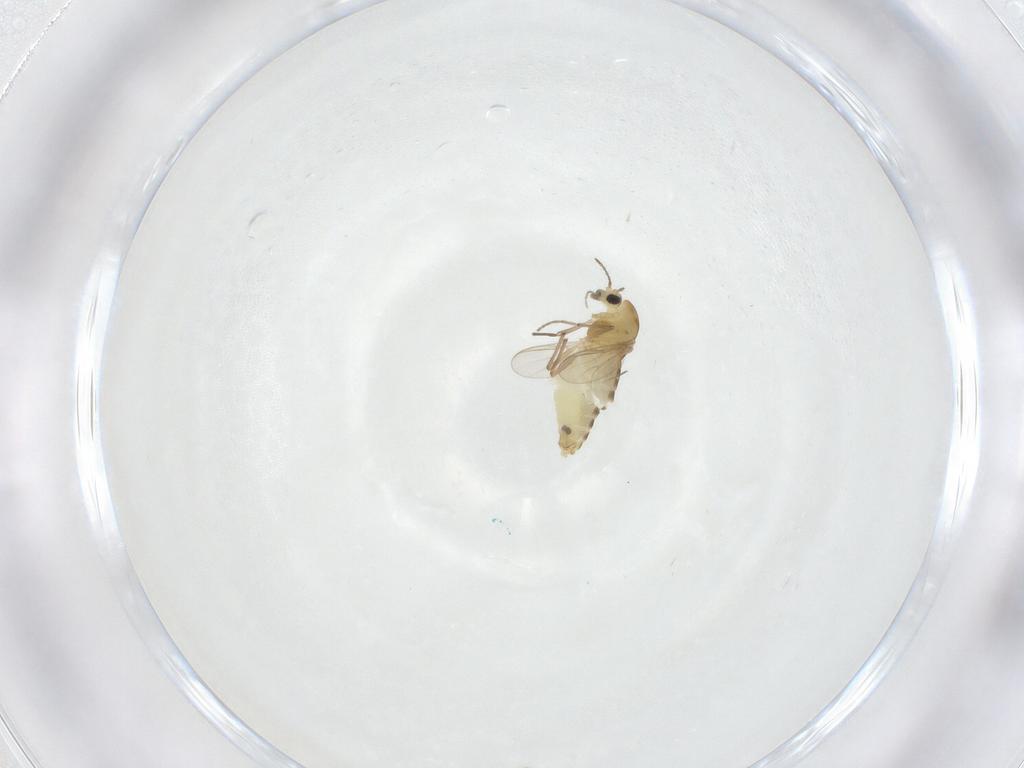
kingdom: Animalia
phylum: Arthropoda
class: Insecta
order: Diptera
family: Chironomidae
